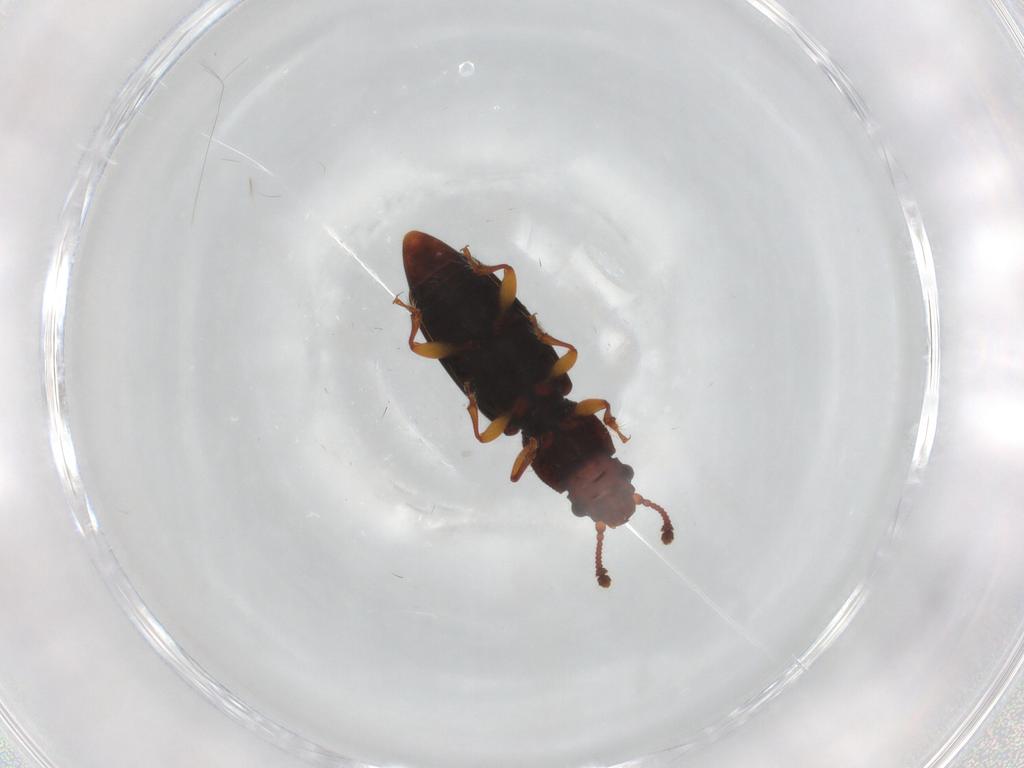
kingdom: Animalia
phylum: Arthropoda
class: Insecta
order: Coleoptera
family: Monotomidae
